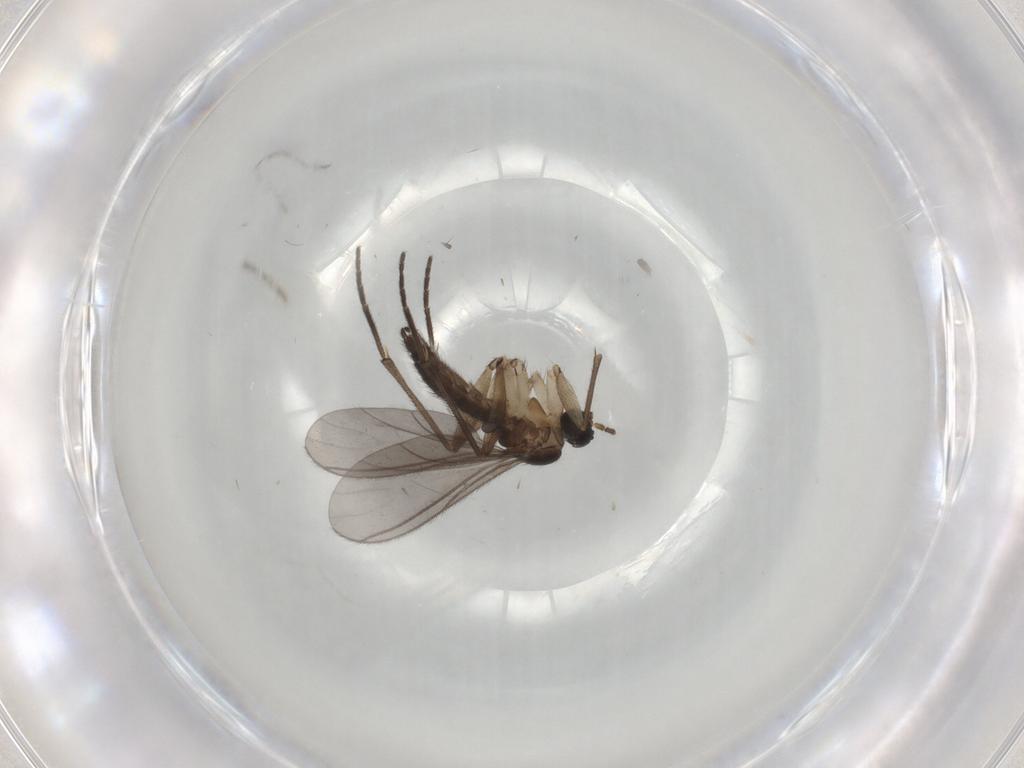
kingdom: Animalia
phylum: Arthropoda
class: Insecta
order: Diptera
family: Sciaridae
